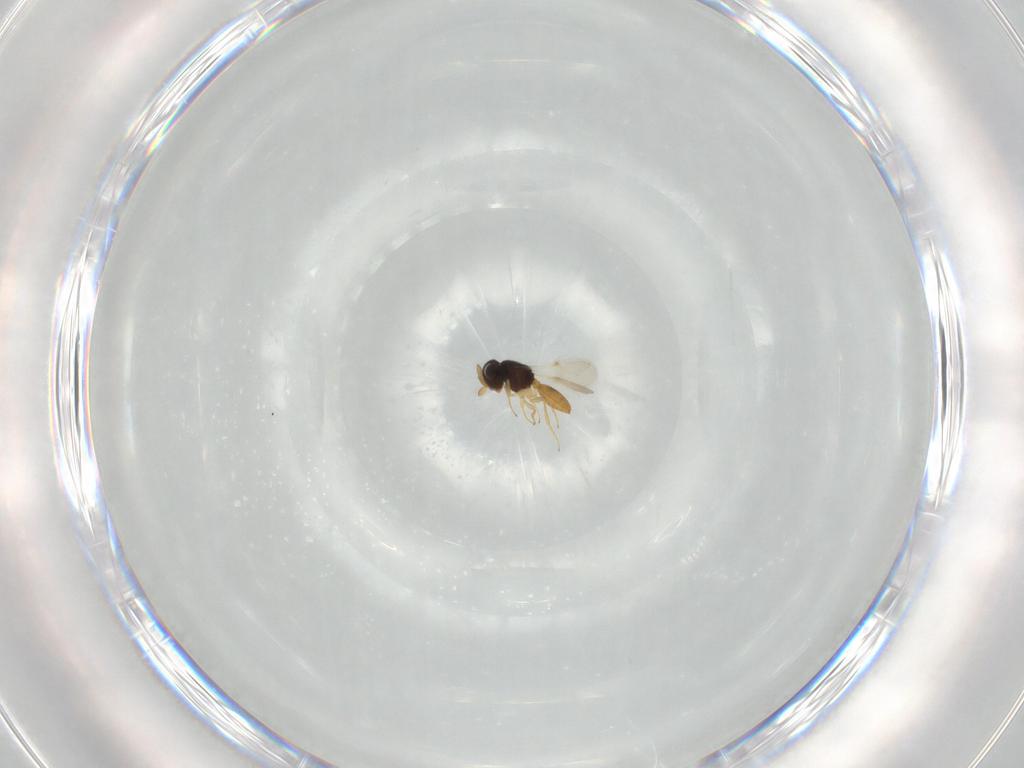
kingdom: Animalia
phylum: Arthropoda
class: Insecta
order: Hymenoptera
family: Scelionidae
